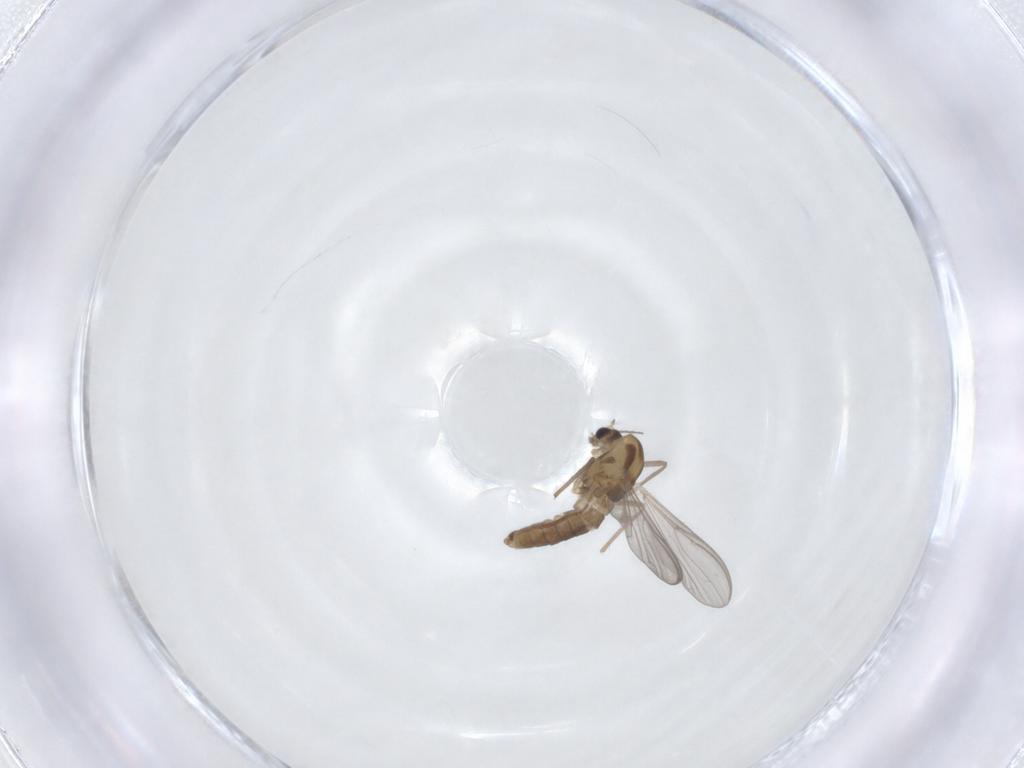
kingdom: Animalia
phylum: Arthropoda
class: Insecta
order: Diptera
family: Chironomidae
